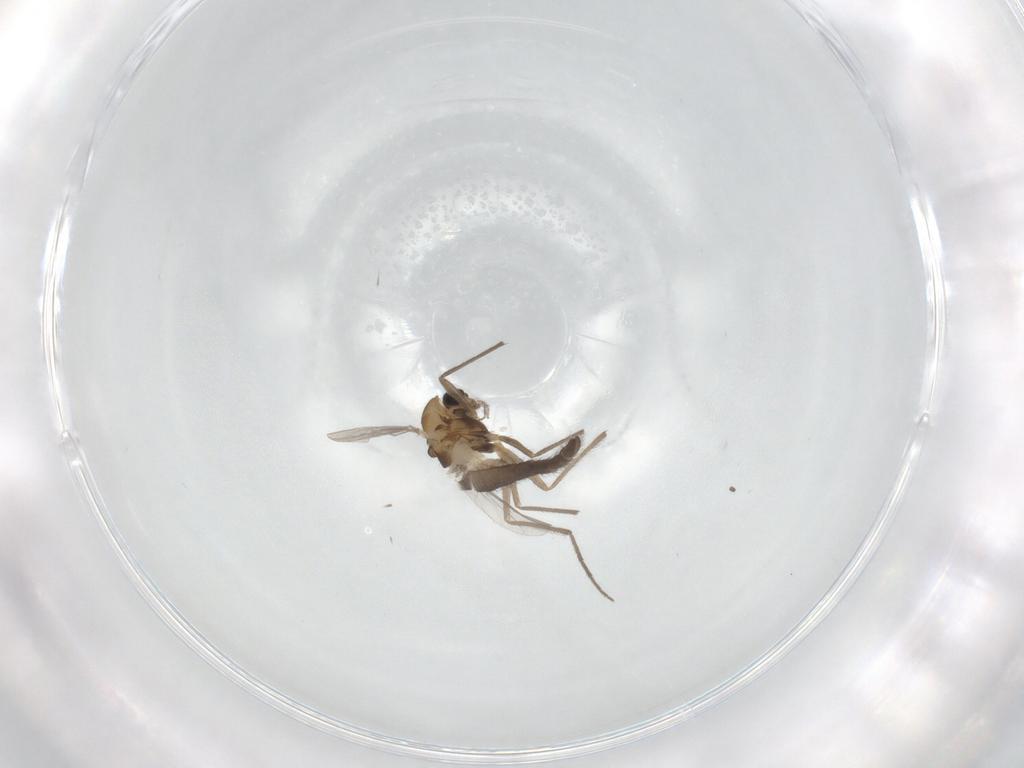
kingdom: Animalia
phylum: Arthropoda
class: Insecta
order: Diptera
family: Chironomidae
